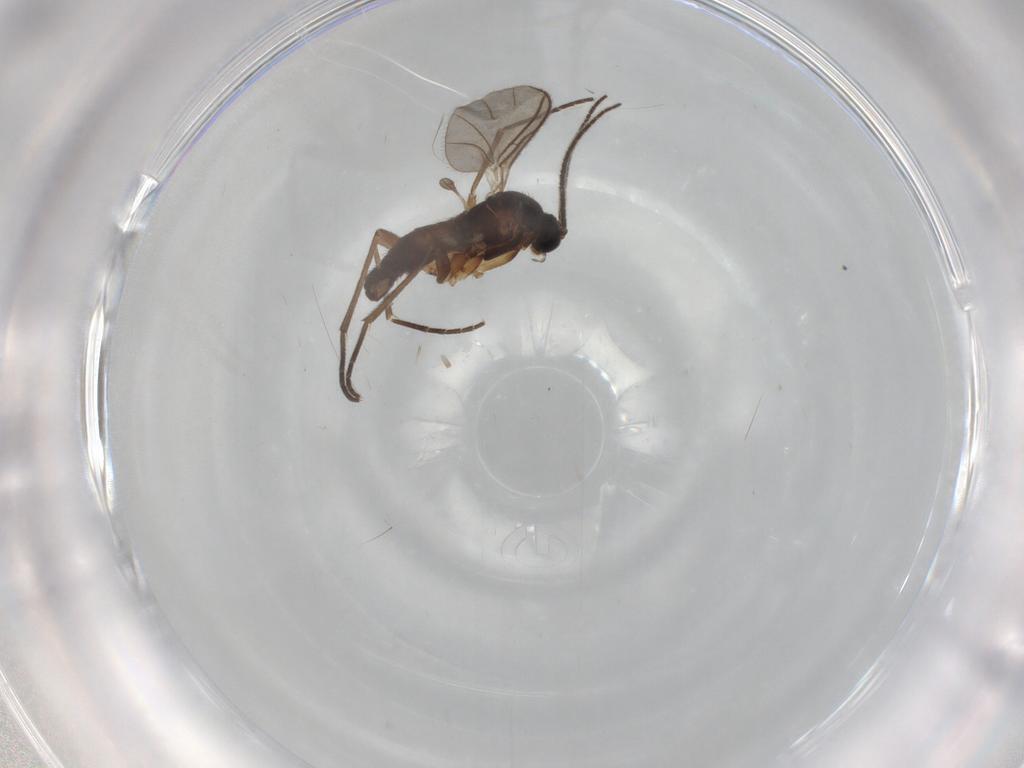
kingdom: Animalia
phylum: Arthropoda
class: Insecta
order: Diptera
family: Sciaridae
